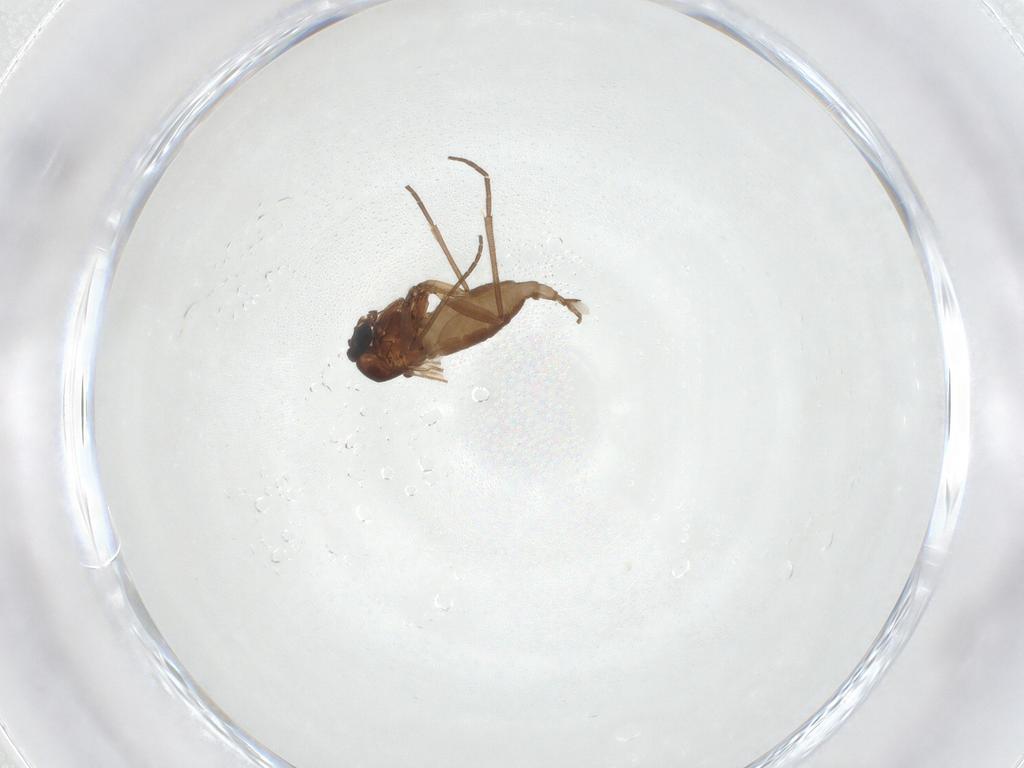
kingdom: Animalia
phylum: Arthropoda
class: Insecta
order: Diptera
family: Sciaridae
